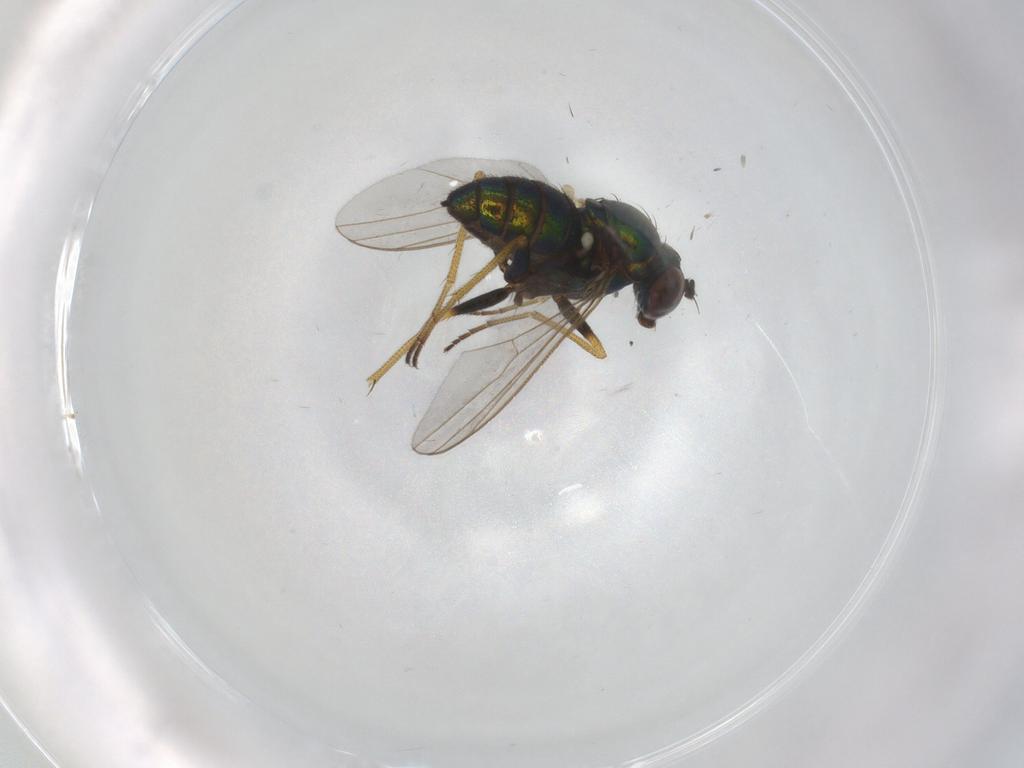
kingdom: Animalia
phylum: Arthropoda
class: Insecta
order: Diptera
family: Dolichopodidae
